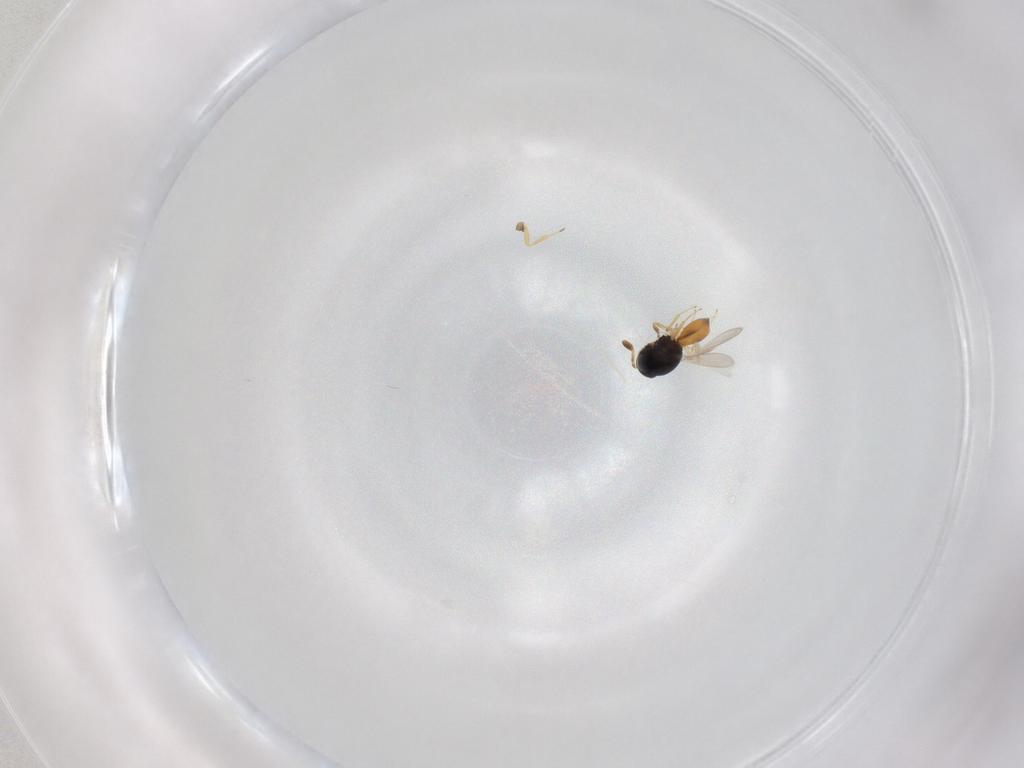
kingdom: Animalia
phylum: Arthropoda
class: Insecta
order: Hymenoptera
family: Scelionidae
